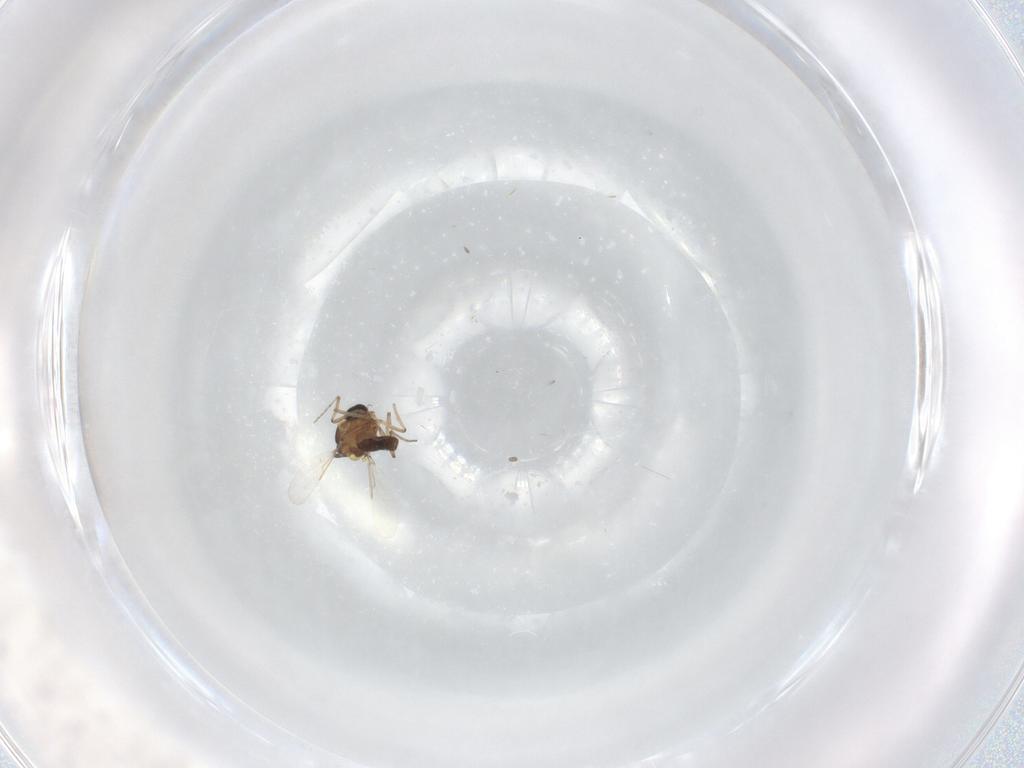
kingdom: Animalia
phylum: Arthropoda
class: Insecta
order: Diptera
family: Ceratopogonidae
